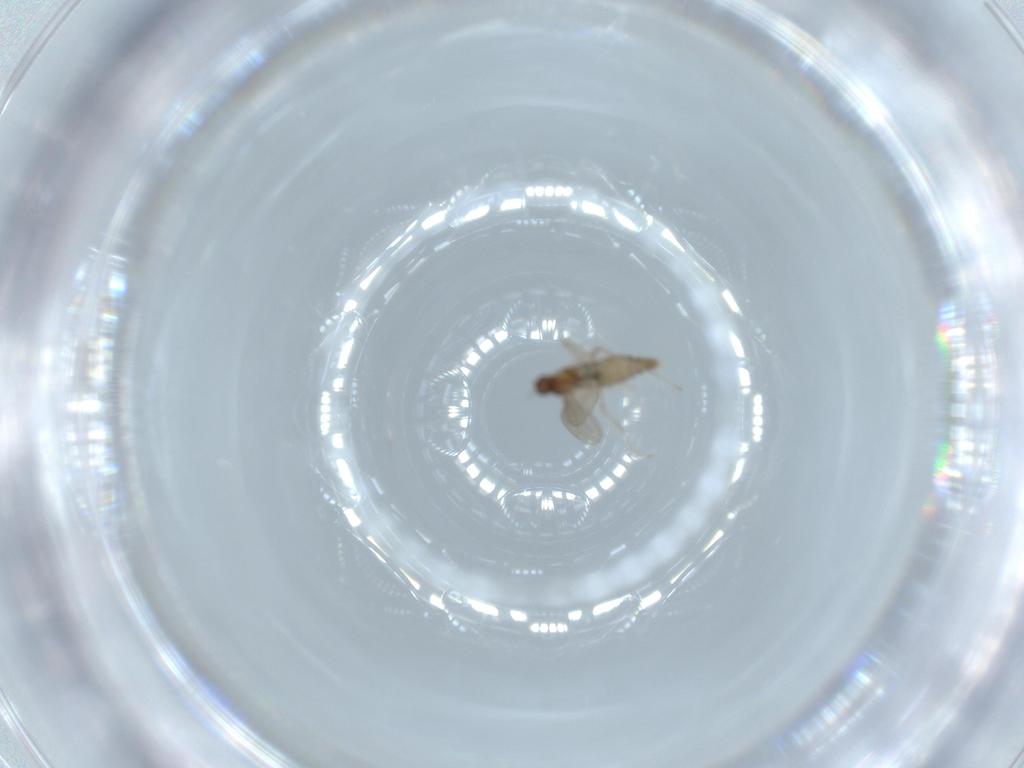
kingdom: Animalia
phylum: Arthropoda
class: Insecta
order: Diptera
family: Cecidomyiidae
